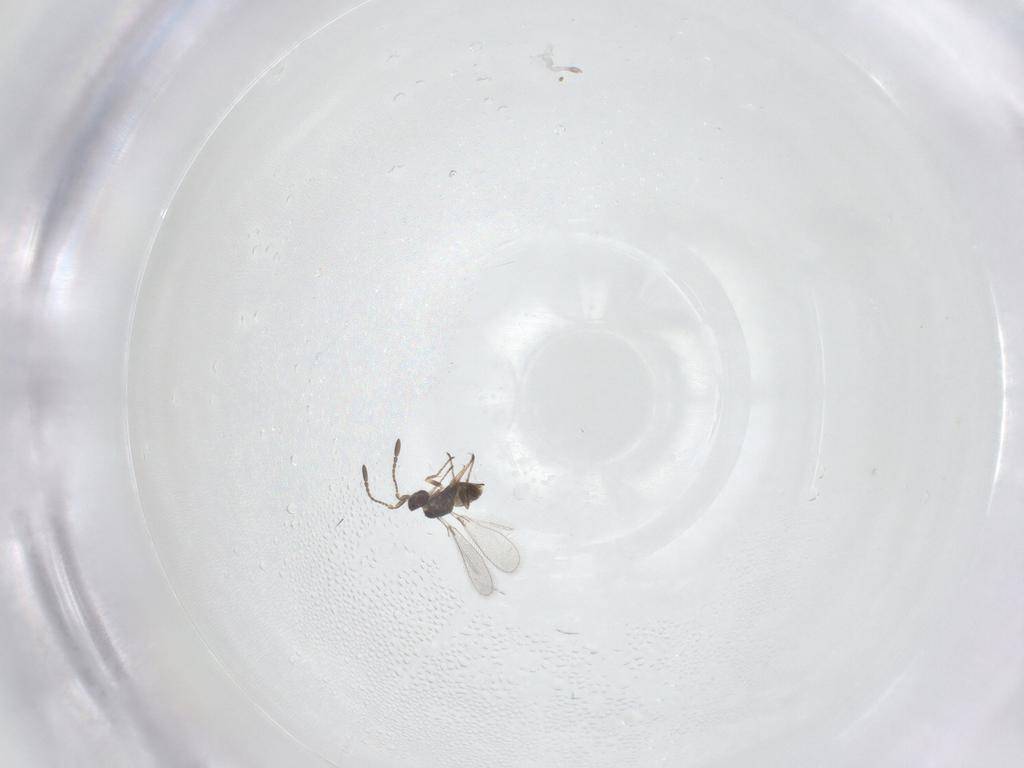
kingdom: Animalia
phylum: Arthropoda
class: Insecta
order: Hymenoptera
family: Mymaridae
